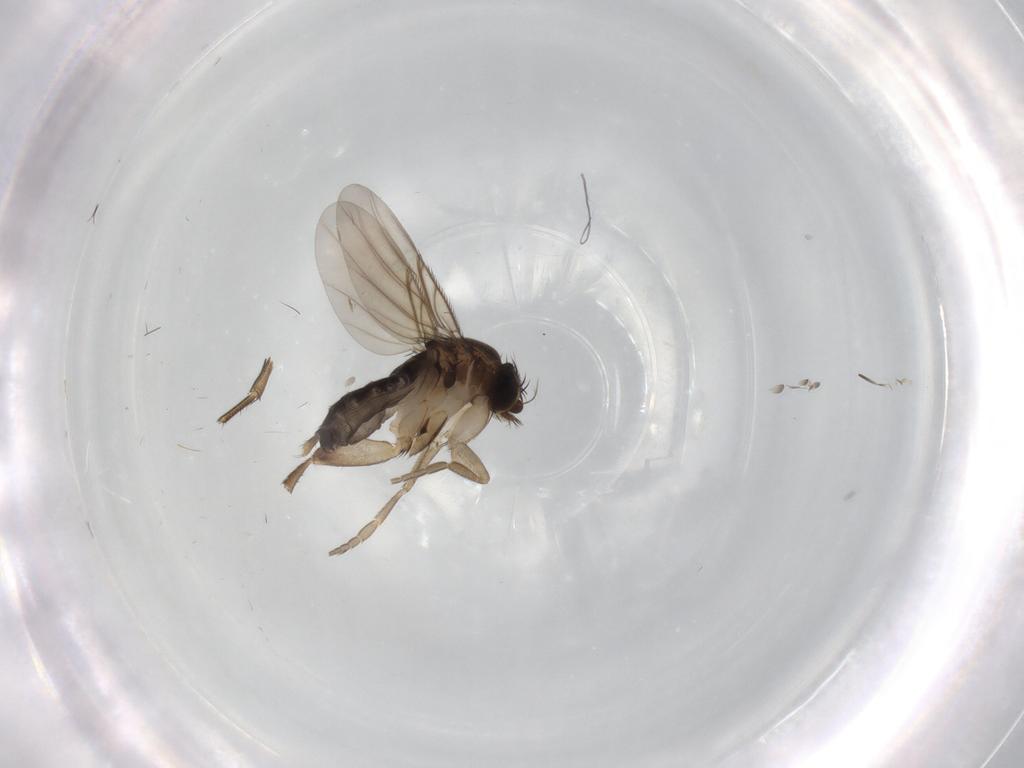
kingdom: Animalia
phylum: Arthropoda
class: Insecta
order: Diptera
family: Phoridae
